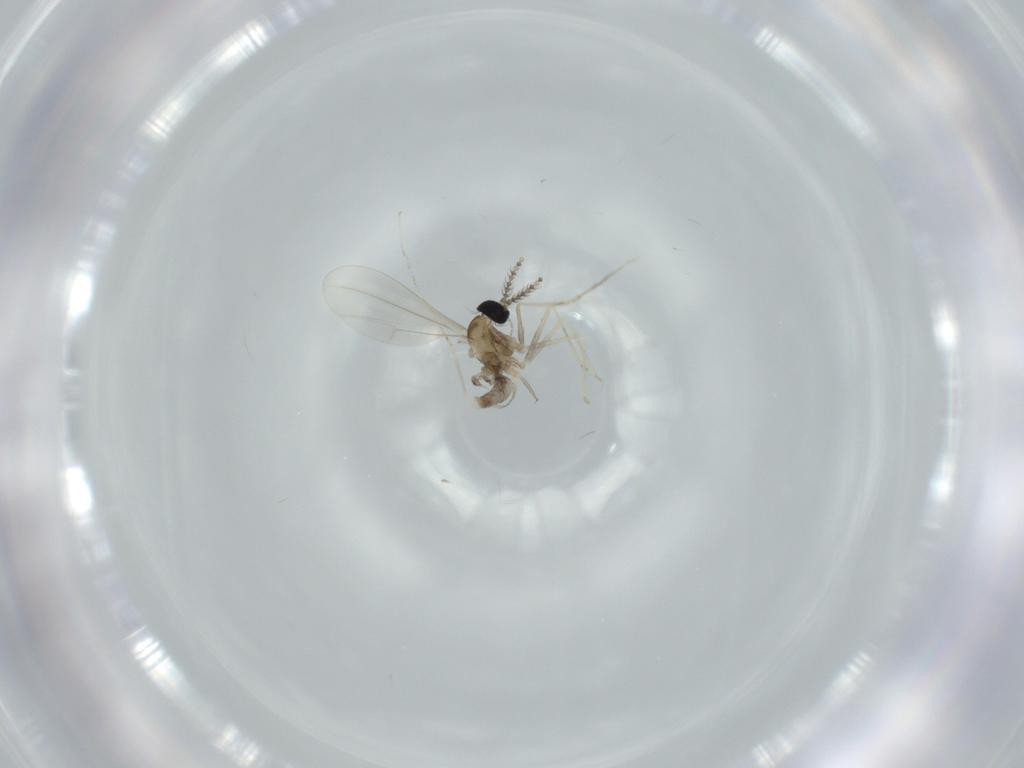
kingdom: Animalia
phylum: Arthropoda
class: Insecta
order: Diptera
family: Cecidomyiidae
